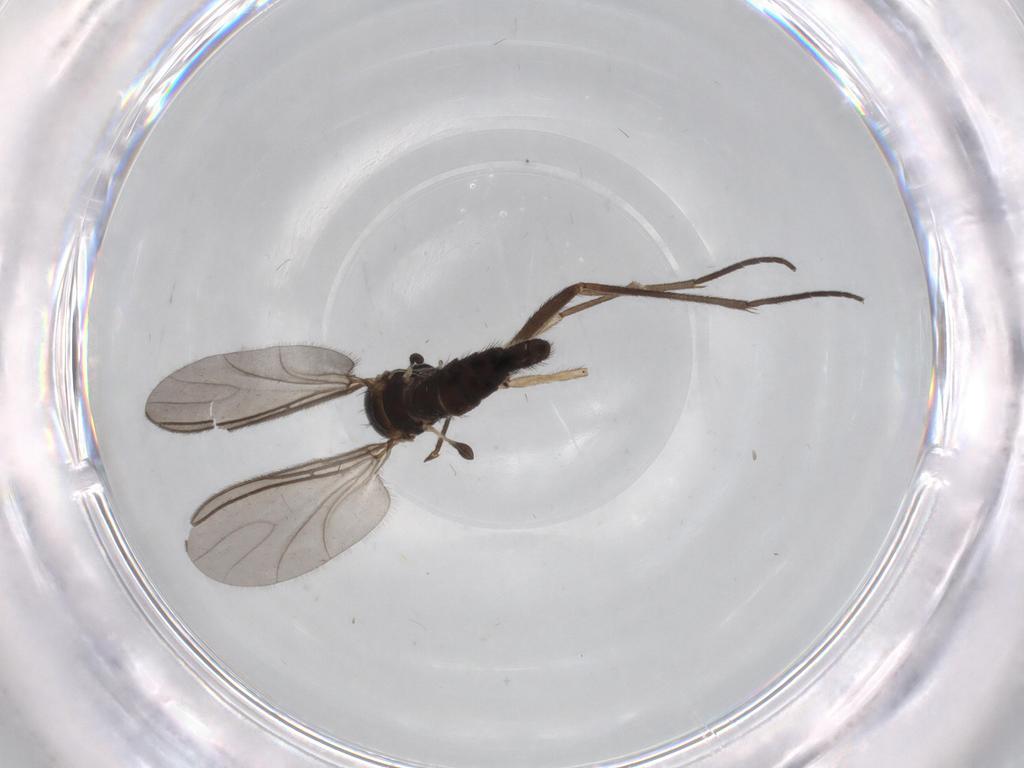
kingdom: Animalia
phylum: Arthropoda
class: Insecta
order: Diptera
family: Sciaridae
